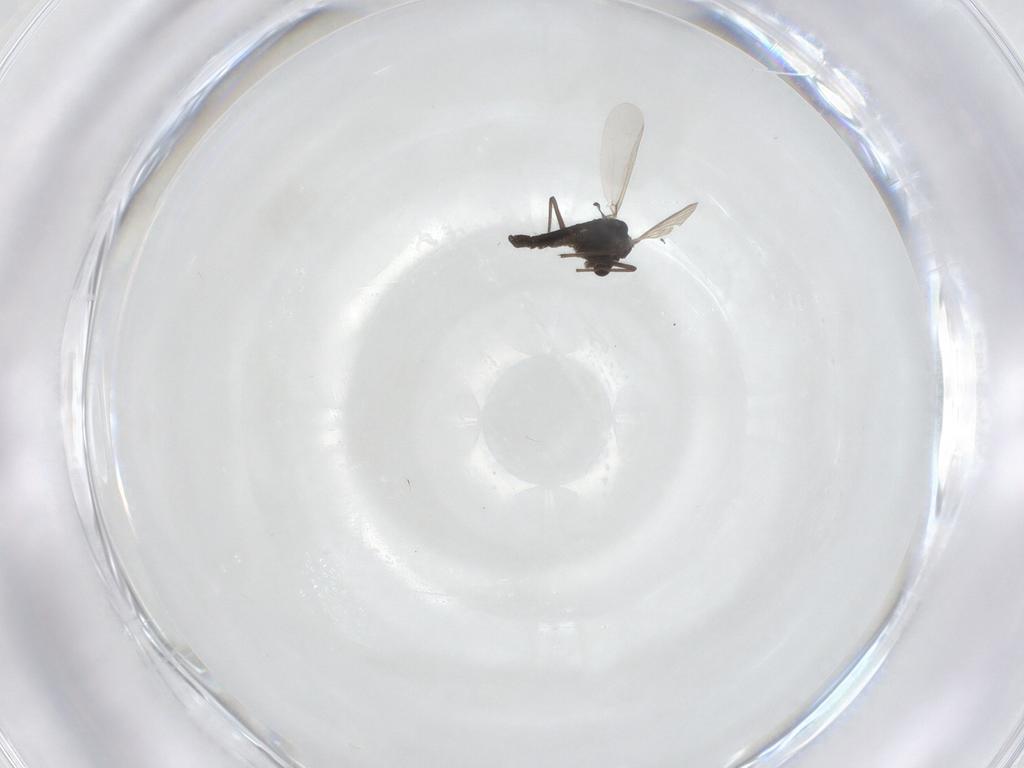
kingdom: Animalia
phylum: Arthropoda
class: Insecta
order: Diptera
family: Chironomidae
